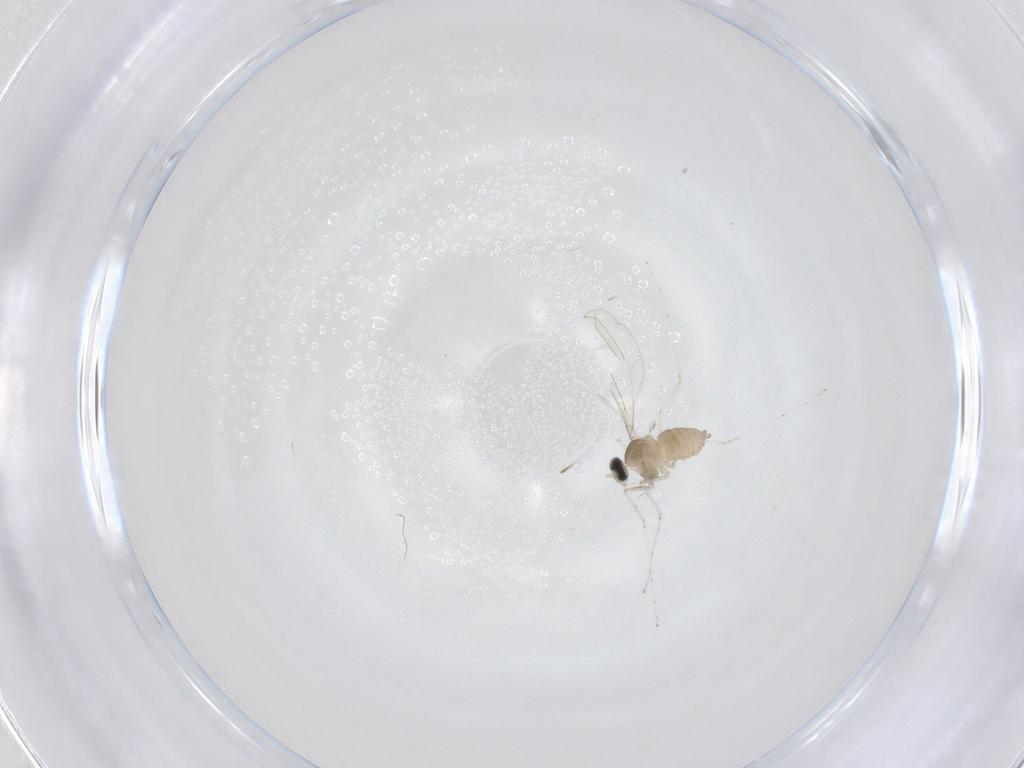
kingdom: Animalia
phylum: Arthropoda
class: Insecta
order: Diptera
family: Cecidomyiidae
